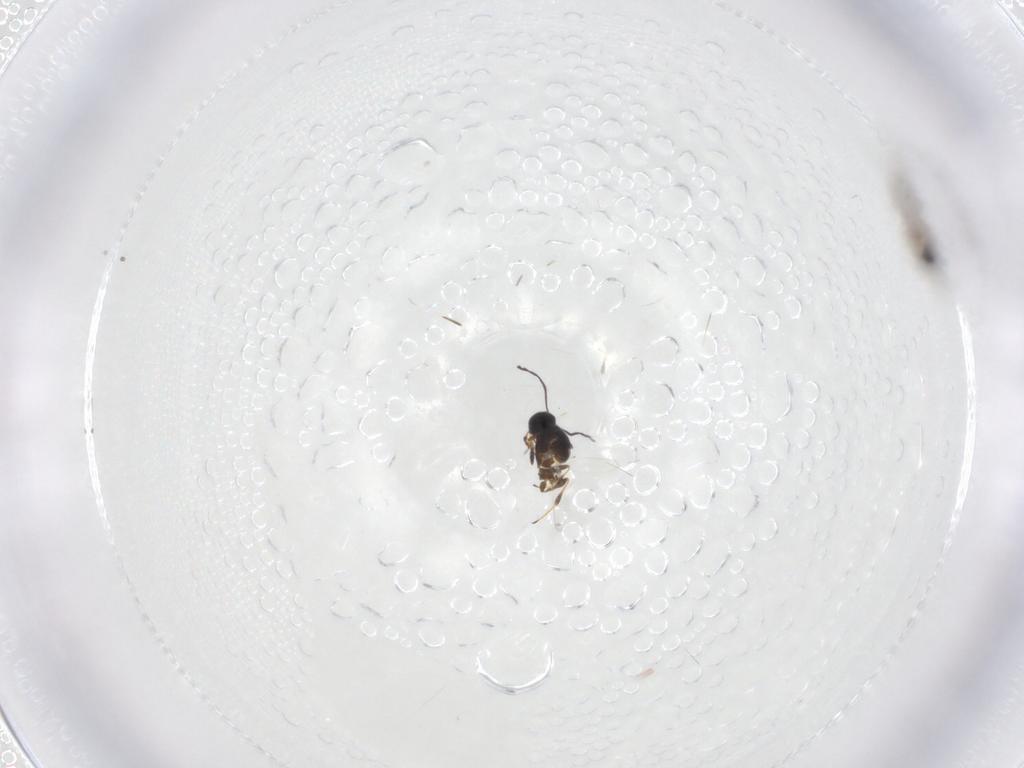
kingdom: Animalia
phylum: Arthropoda
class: Insecta
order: Hymenoptera
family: Platygastridae
